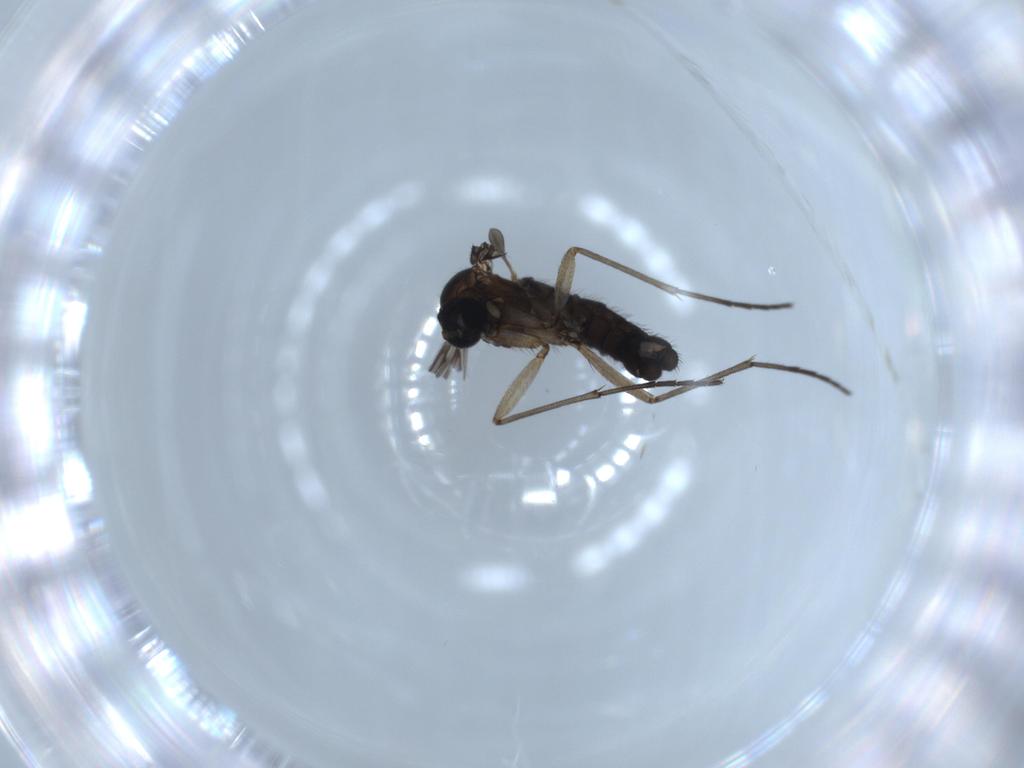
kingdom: Animalia
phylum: Arthropoda
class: Insecta
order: Diptera
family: Sciaridae
